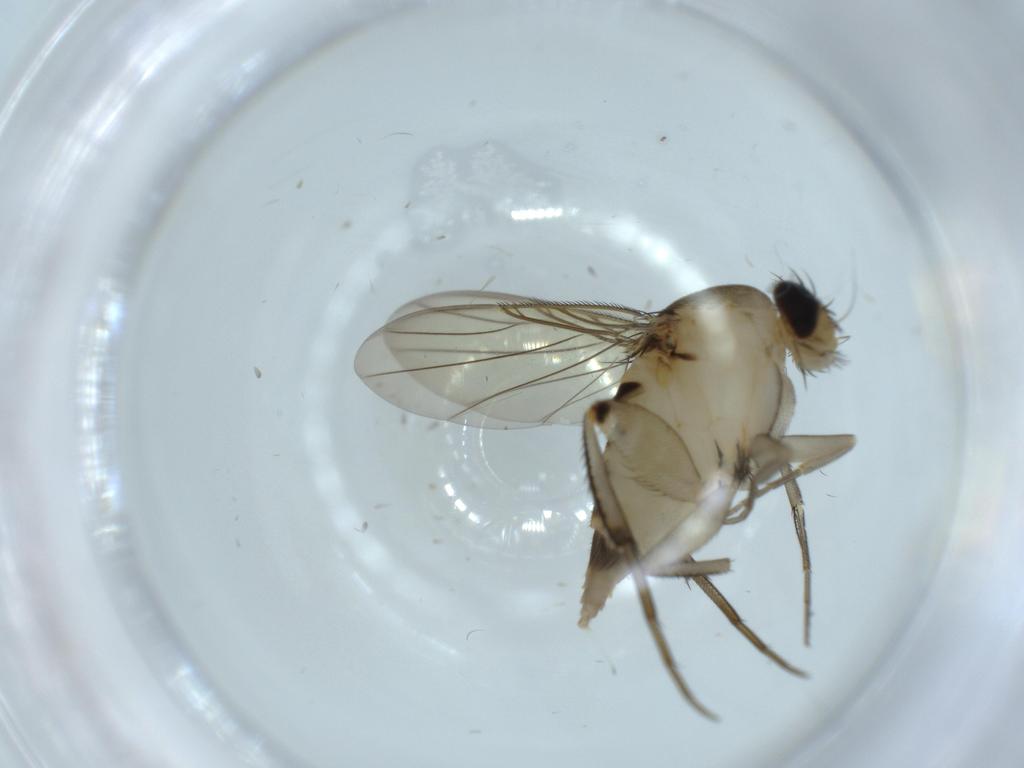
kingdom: Animalia
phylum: Arthropoda
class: Insecta
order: Diptera
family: Phoridae
